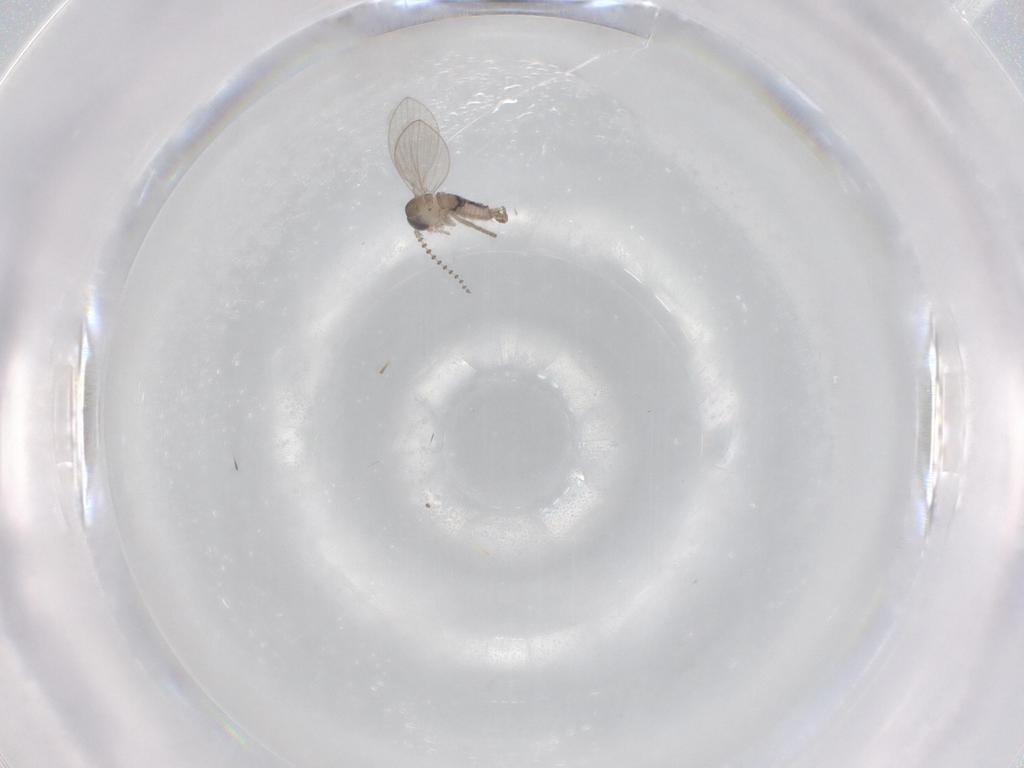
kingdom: Animalia
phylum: Arthropoda
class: Insecta
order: Diptera
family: Psychodidae
